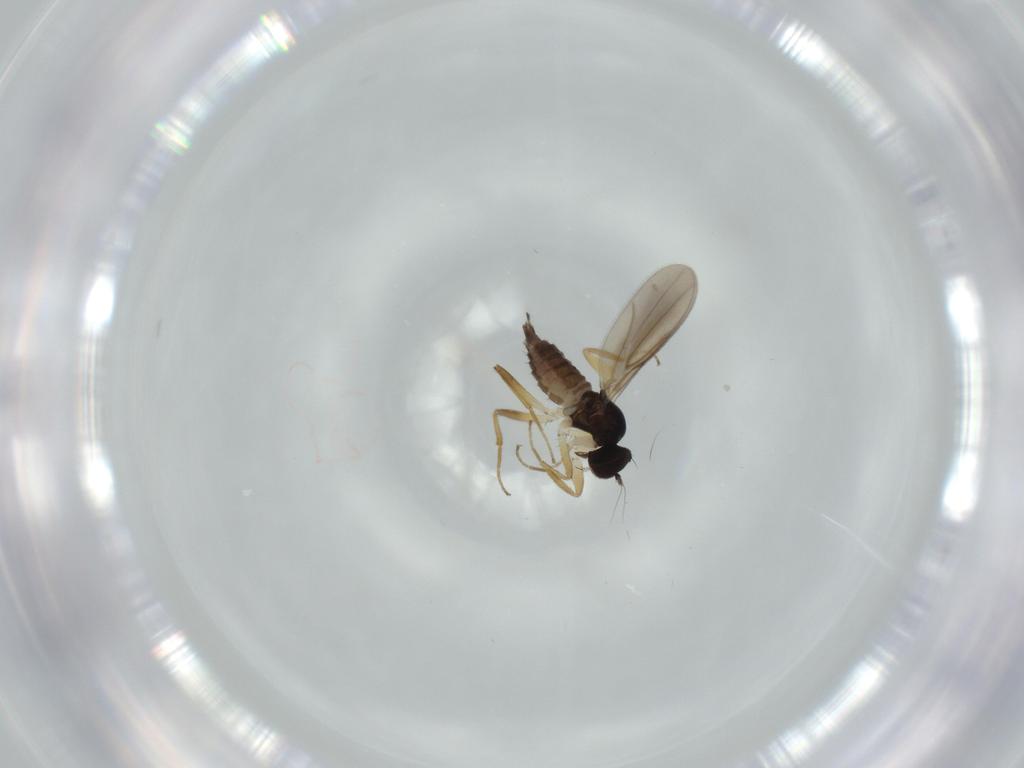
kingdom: Animalia
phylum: Arthropoda
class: Insecta
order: Diptera
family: Hybotidae
